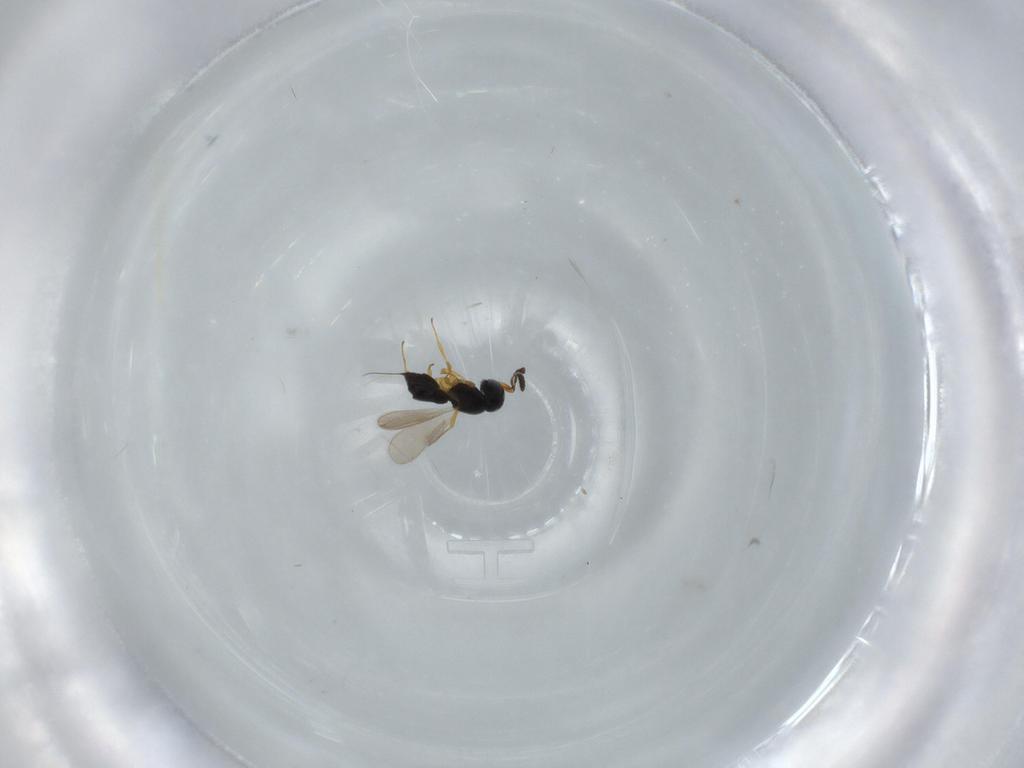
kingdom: Animalia
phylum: Arthropoda
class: Insecta
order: Hymenoptera
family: Scelionidae
